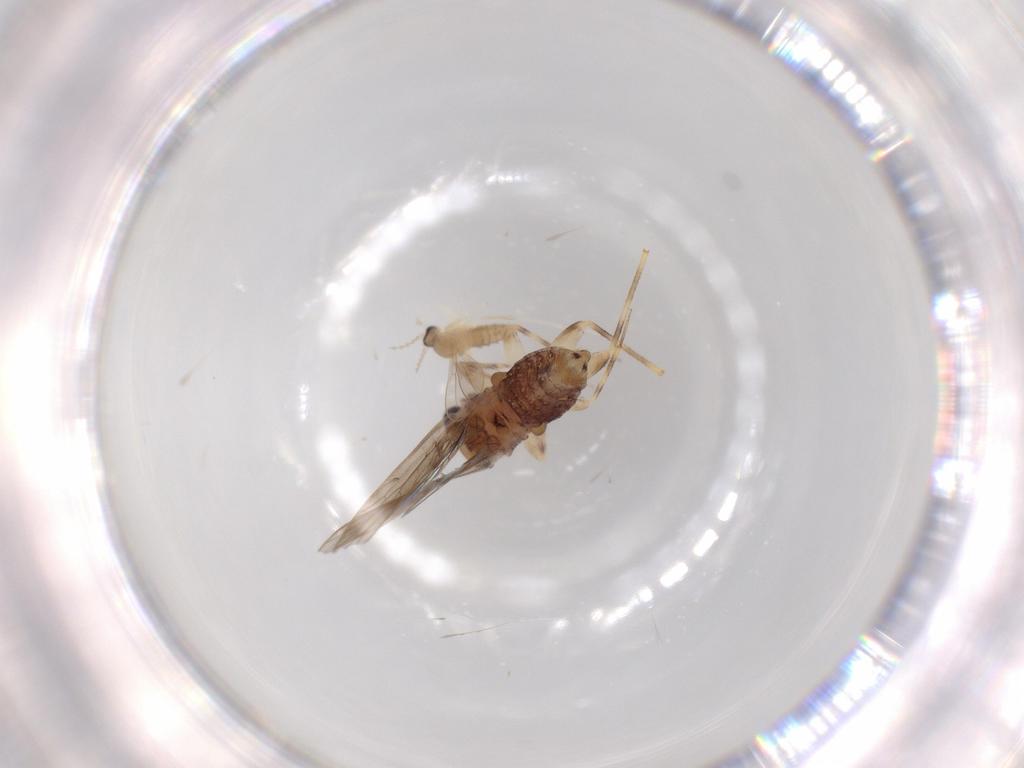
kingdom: Animalia
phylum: Arthropoda
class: Insecta
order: Psocodea
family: Lepidopsocidae
